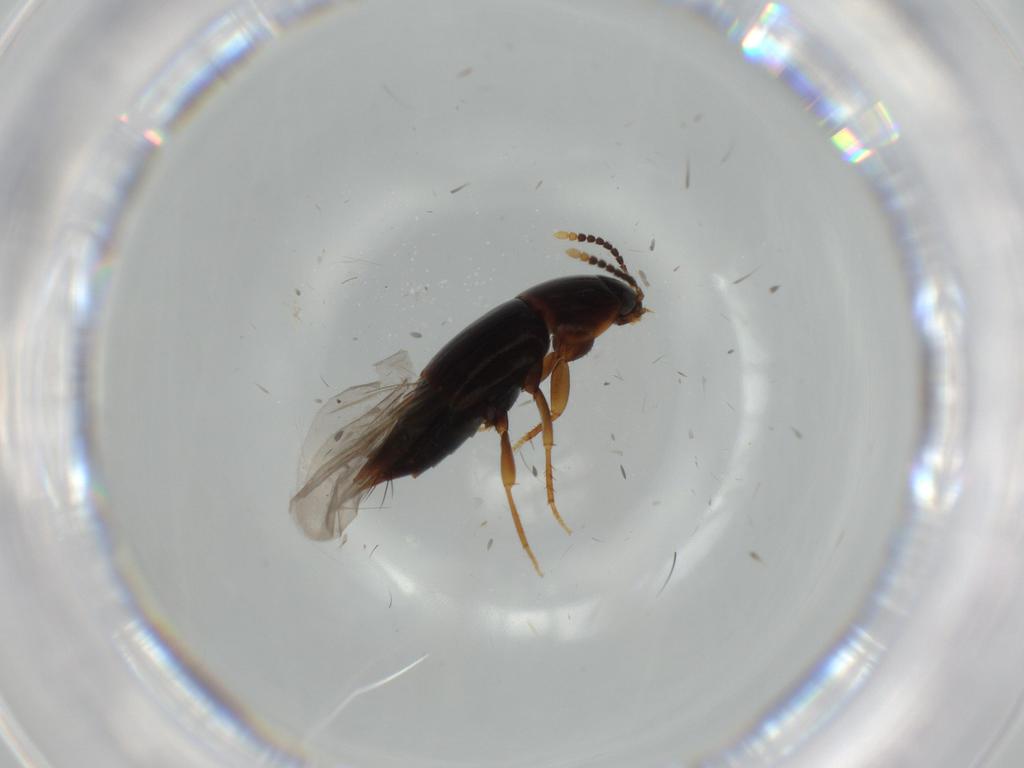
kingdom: Animalia
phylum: Arthropoda
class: Insecta
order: Coleoptera
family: Staphylinidae
